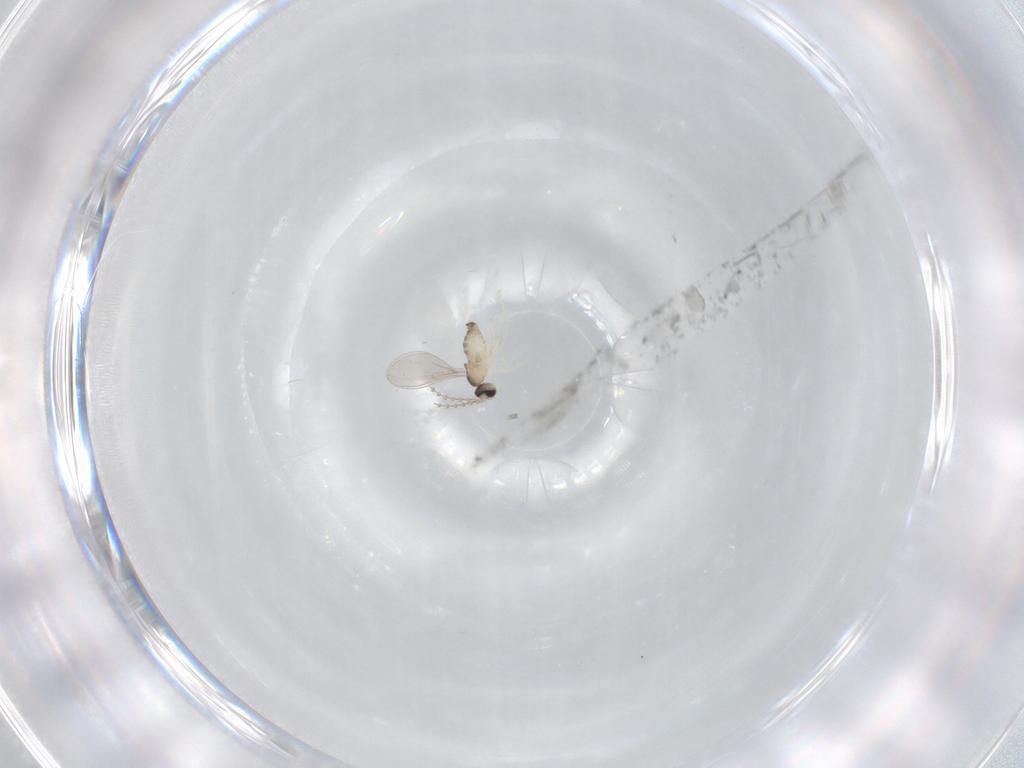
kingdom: Animalia
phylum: Arthropoda
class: Insecta
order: Diptera
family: Cecidomyiidae
